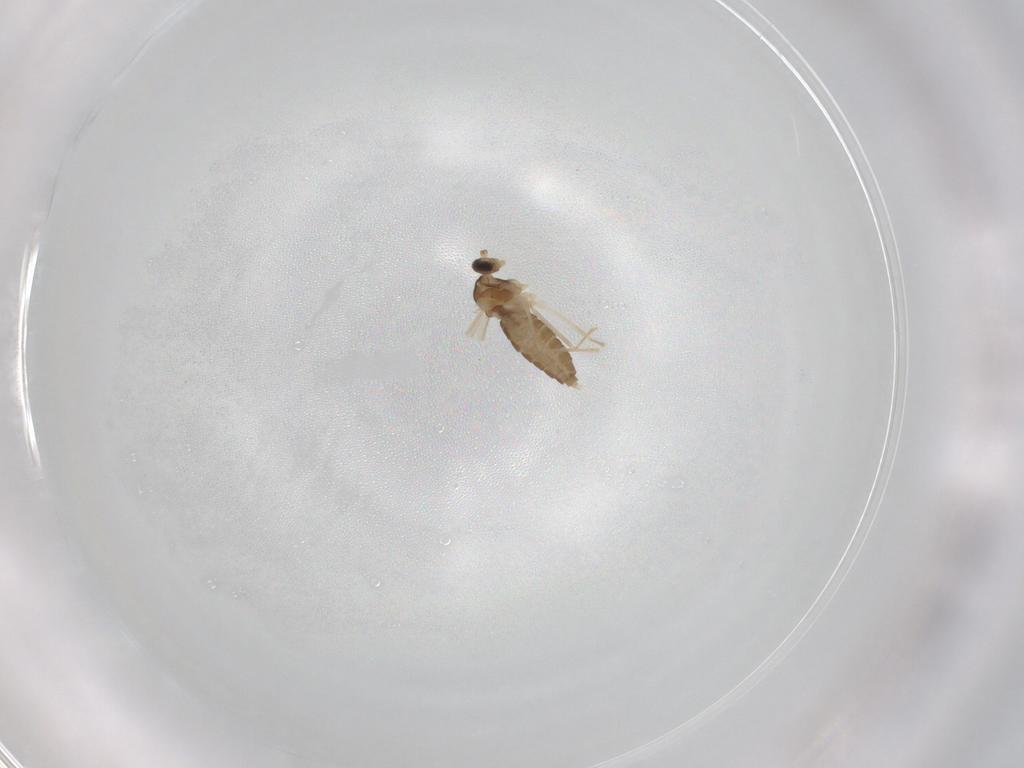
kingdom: Animalia
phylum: Arthropoda
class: Insecta
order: Diptera
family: Cecidomyiidae
